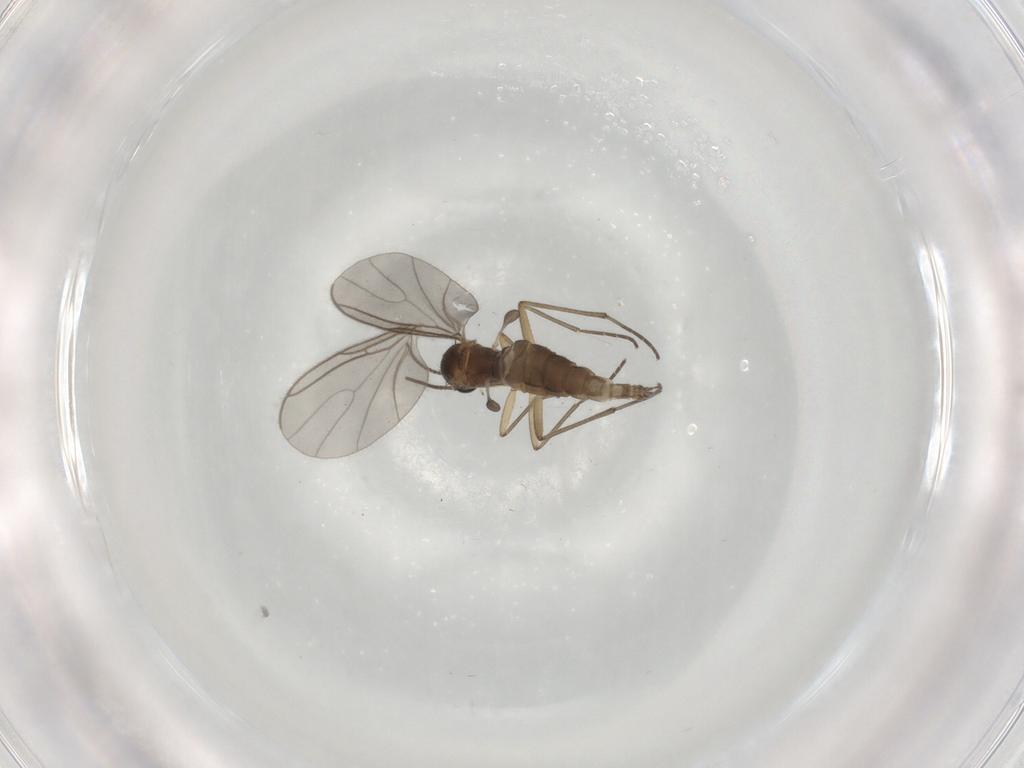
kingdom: Animalia
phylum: Arthropoda
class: Insecta
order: Diptera
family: Sciaridae
